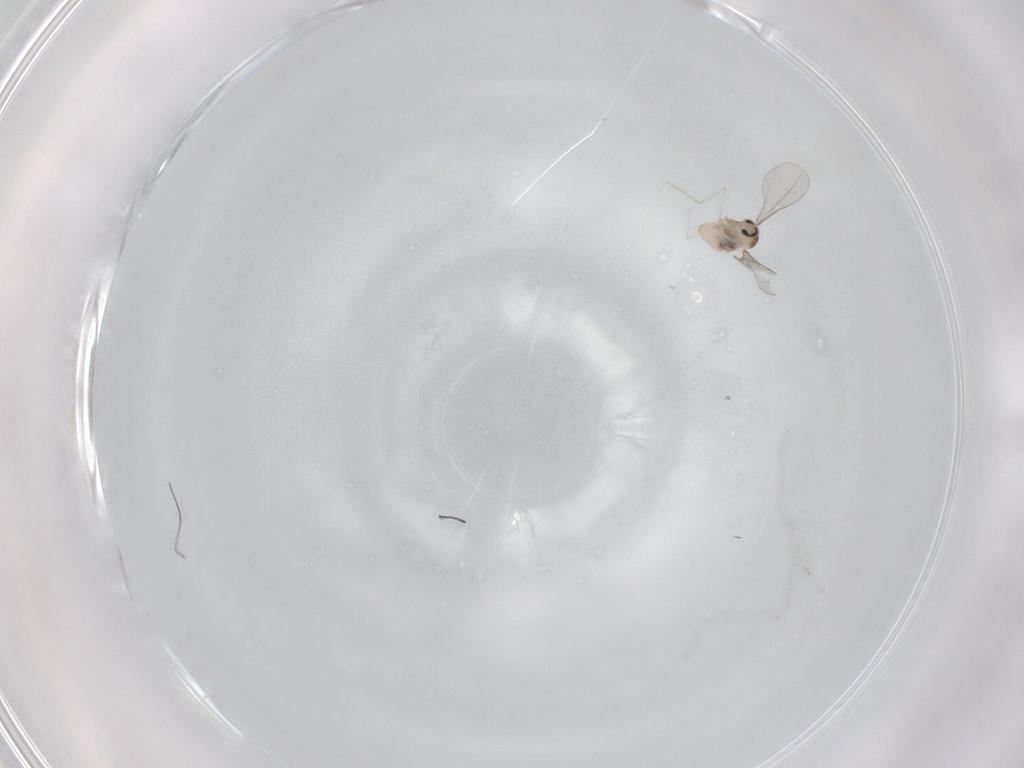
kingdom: Animalia
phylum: Arthropoda
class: Insecta
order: Diptera
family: Cecidomyiidae
